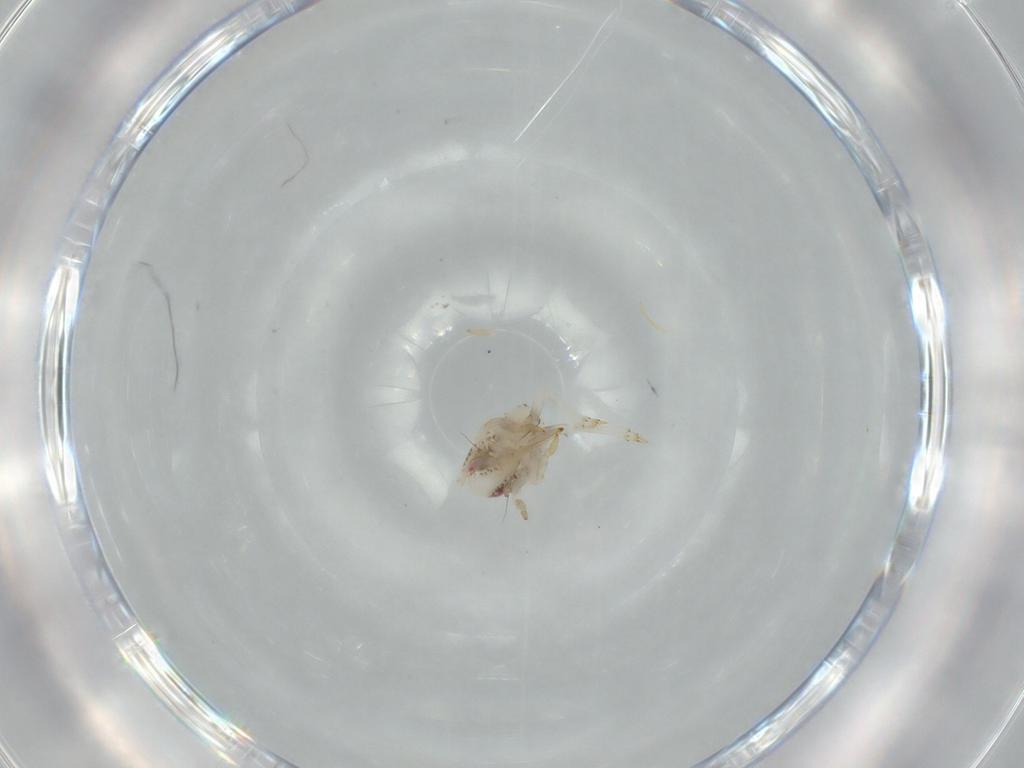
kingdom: Animalia
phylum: Arthropoda
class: Insecta
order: Hemiptera
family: Acanaloniidae
